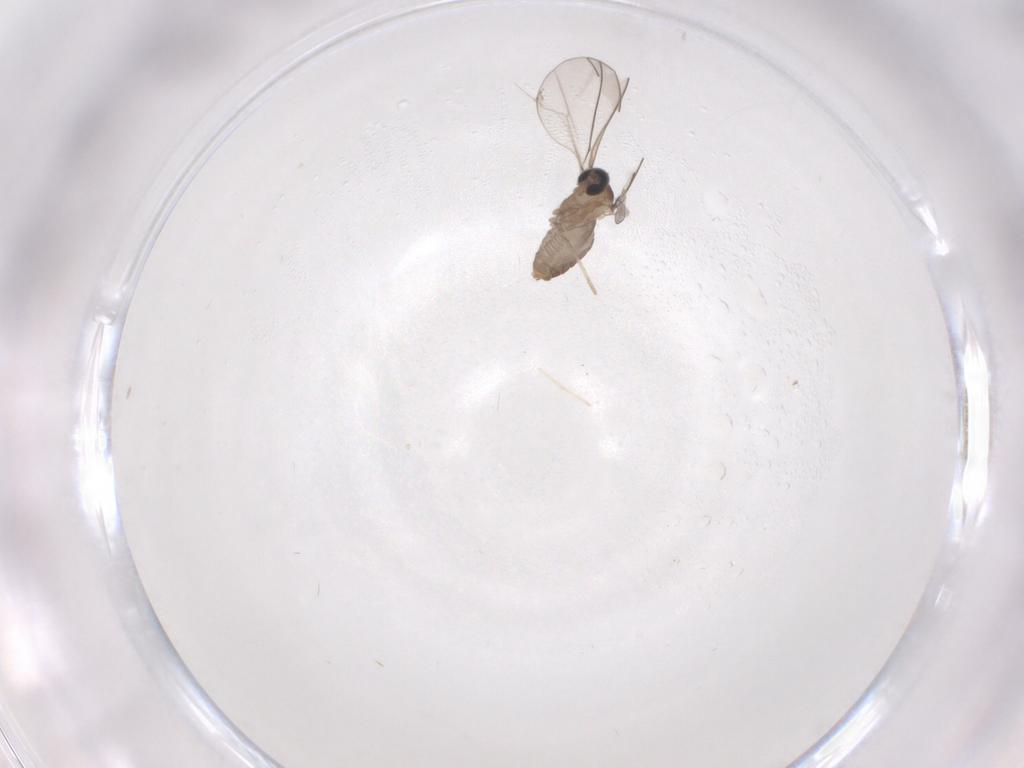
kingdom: Animalia
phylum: Arthropoda
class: Insecta
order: Diptera
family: Cecidomyiidae
